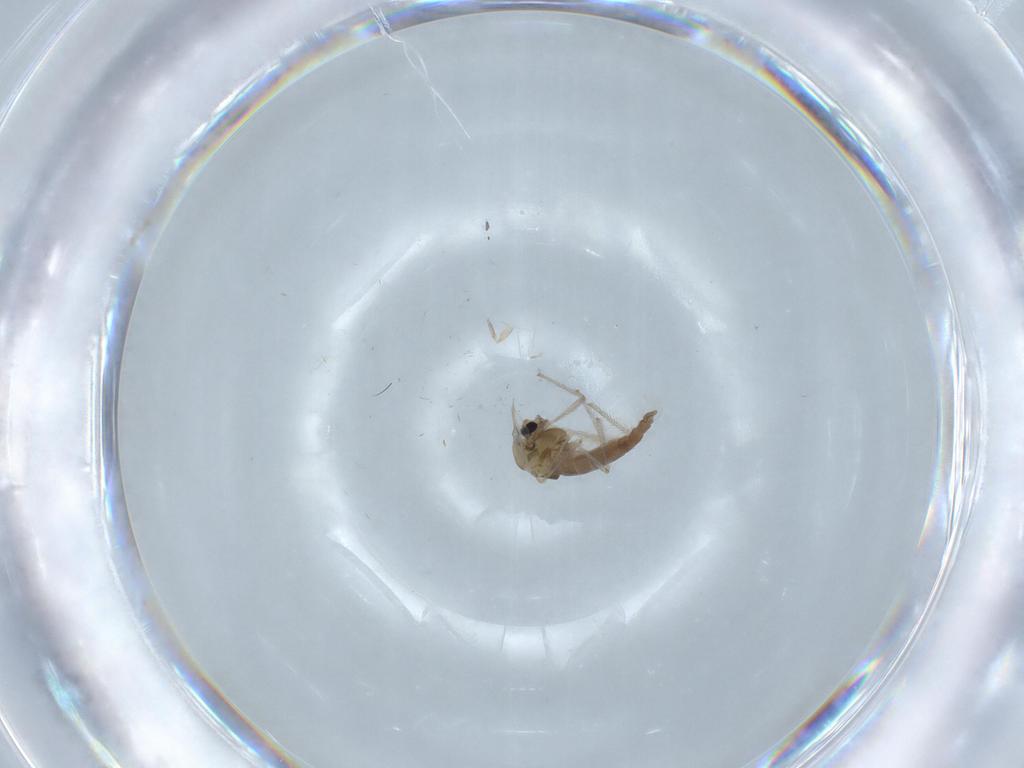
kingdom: Animalia
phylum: Arthropoda
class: Insecta
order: Diptera
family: Chironomidae
